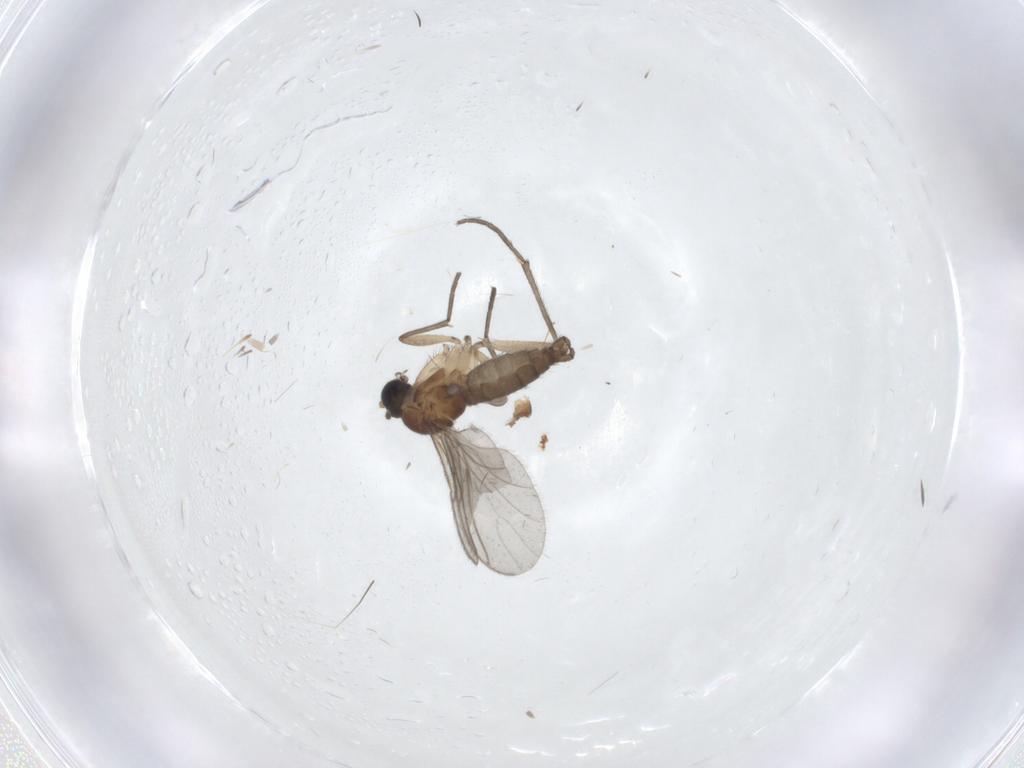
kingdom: Animalia
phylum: Arthropoda
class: Insecta
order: Diptera
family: Sciaridae
